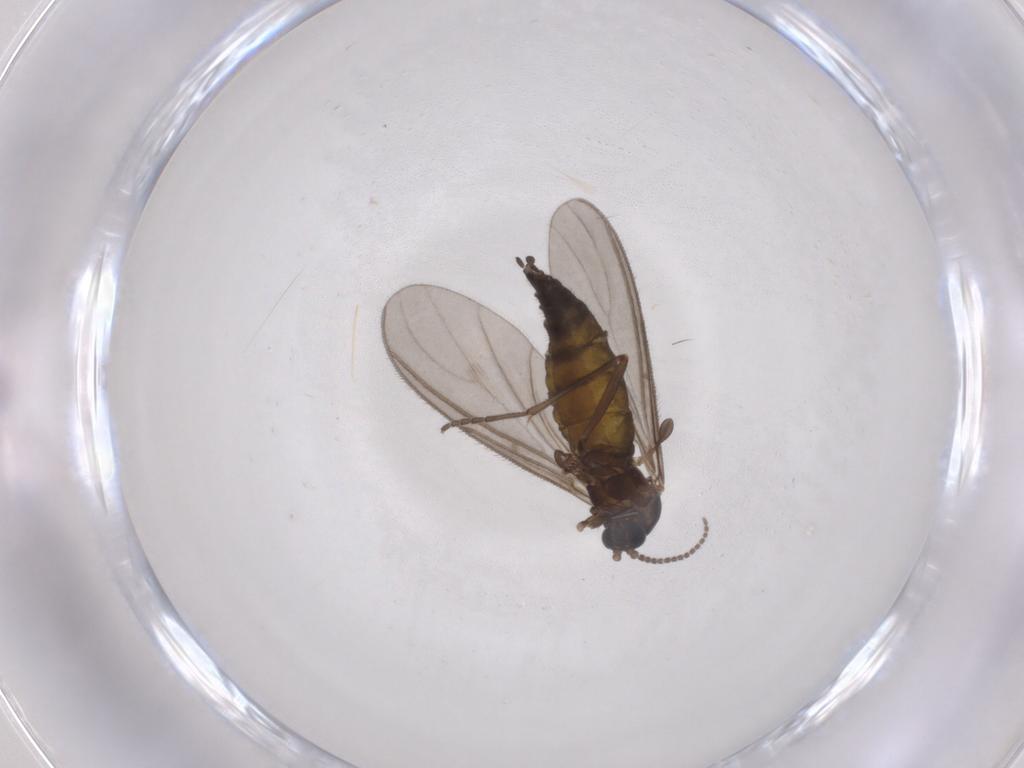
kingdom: Animalia
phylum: Arthropoda
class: Insecta
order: Diptera
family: Sciaridae
